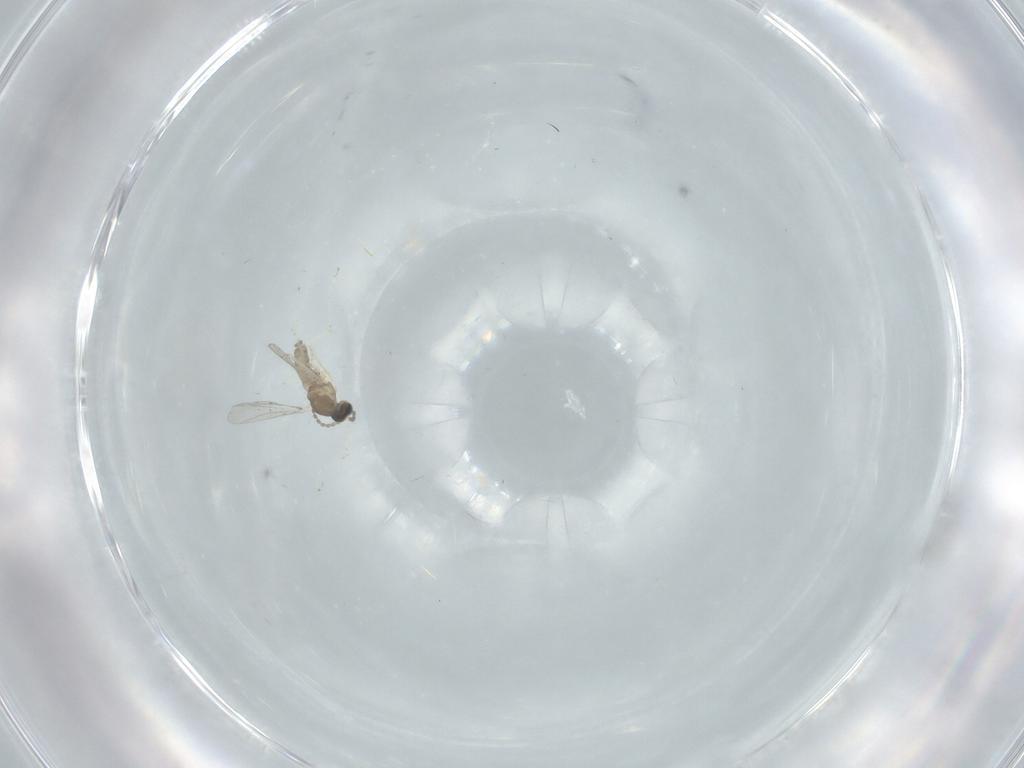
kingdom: Animalia
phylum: Arthropoda
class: Insecta
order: Diptera
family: Cecidomyiidae
